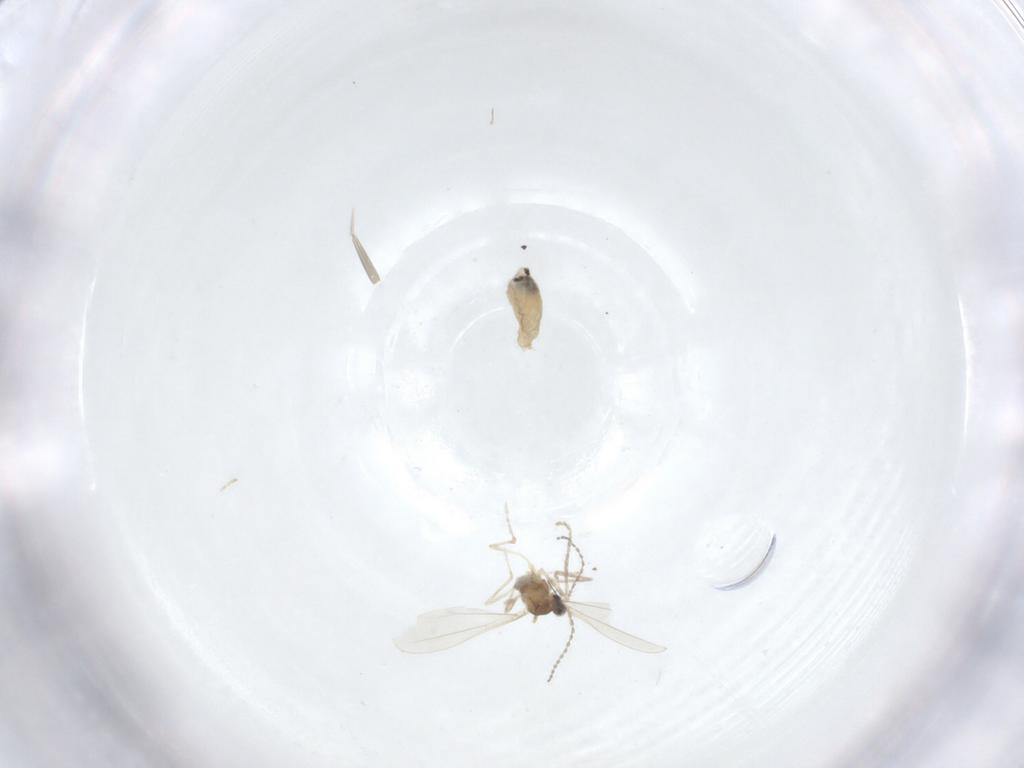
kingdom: Animalia
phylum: Arthropoda
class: Insecta
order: Diptera
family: Cecidomyiidae
